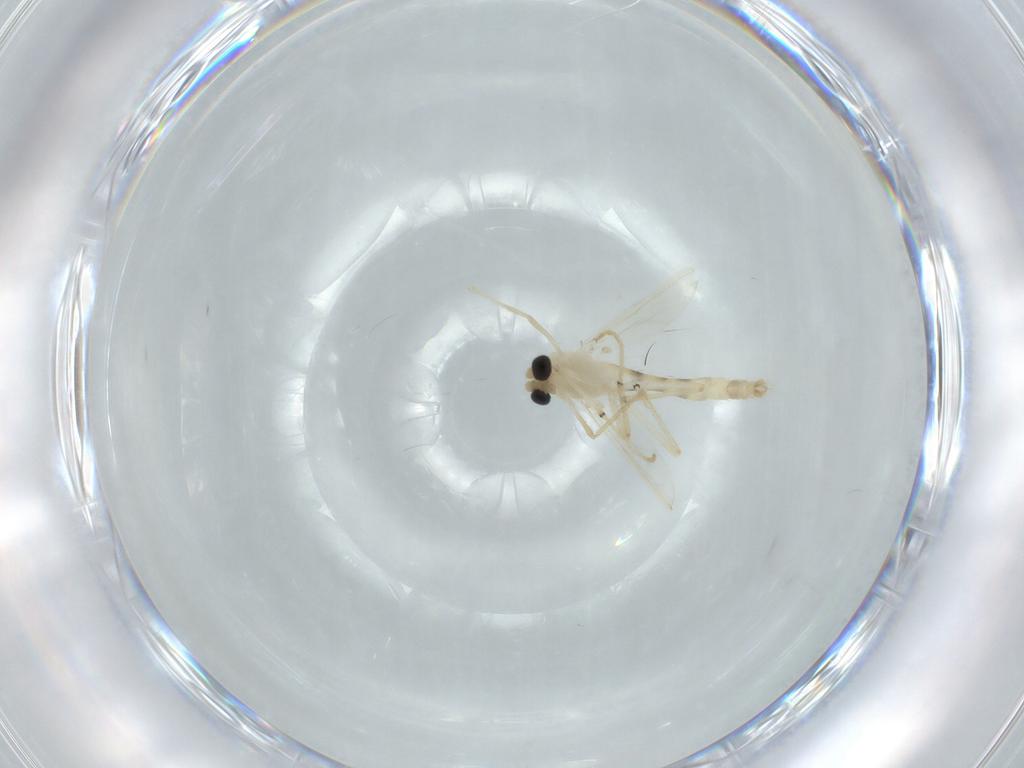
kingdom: Animalia
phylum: Arthropoda
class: Insecta
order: Diptera
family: Chironomidae
